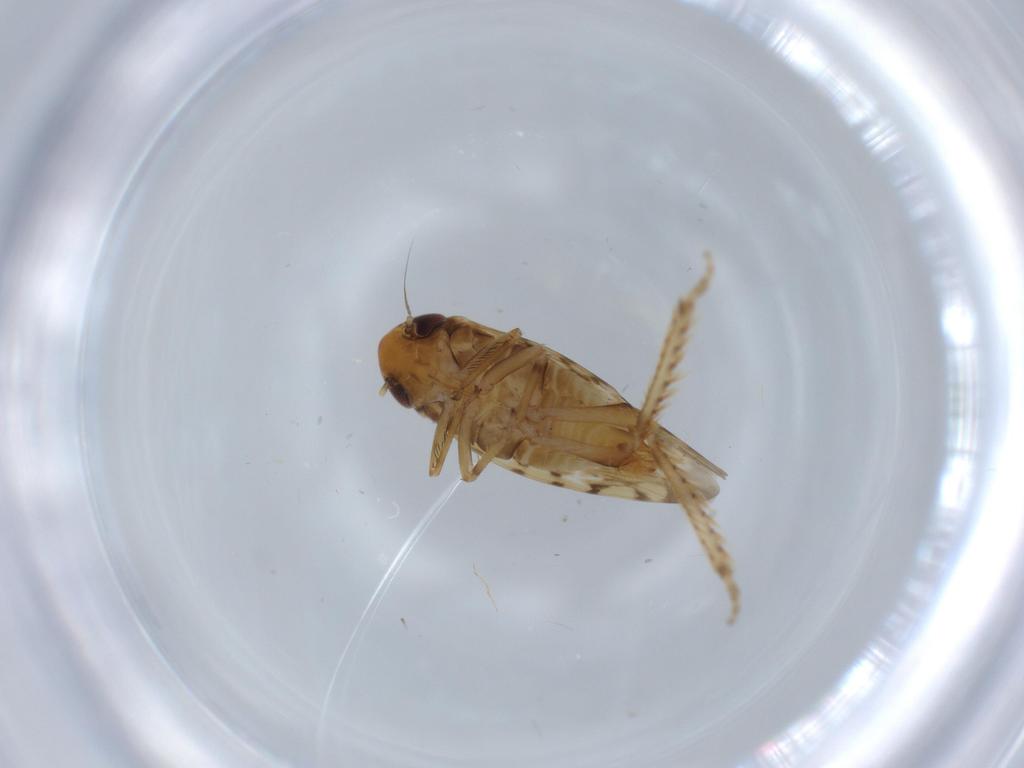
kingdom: Animalia
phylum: Arthropoda
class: Insecta
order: Hemiptera
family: Cicadellidae
